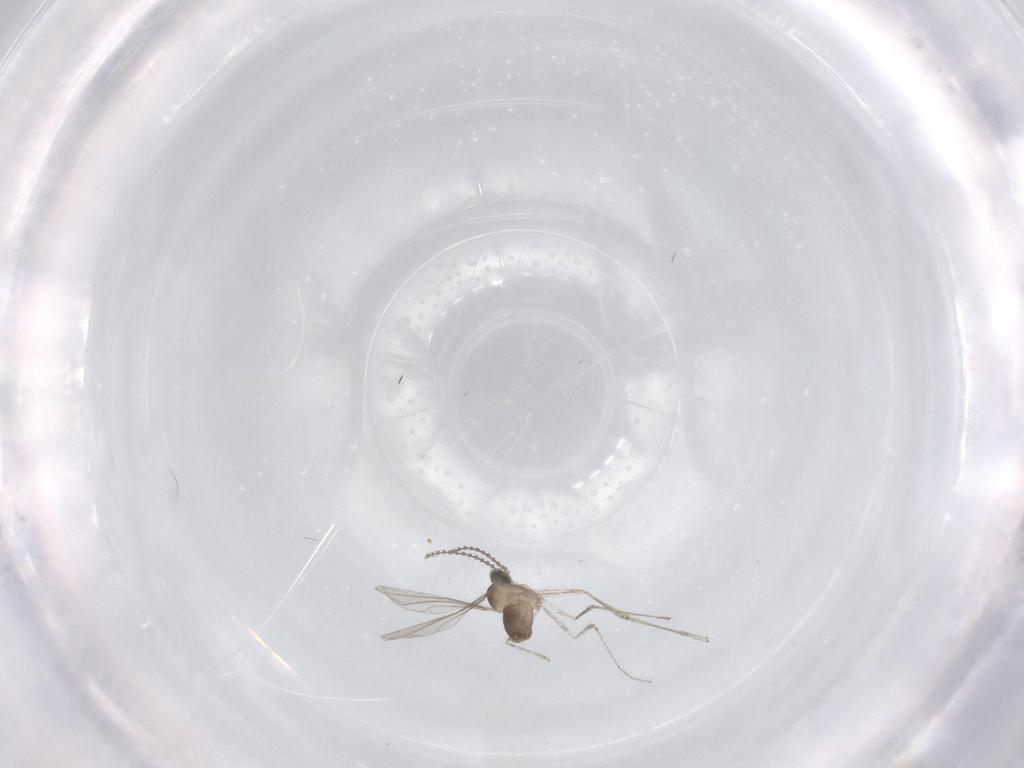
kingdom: Animalia
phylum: Arthropoda
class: Insecta
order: Diptera
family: Cecidomyiidae
